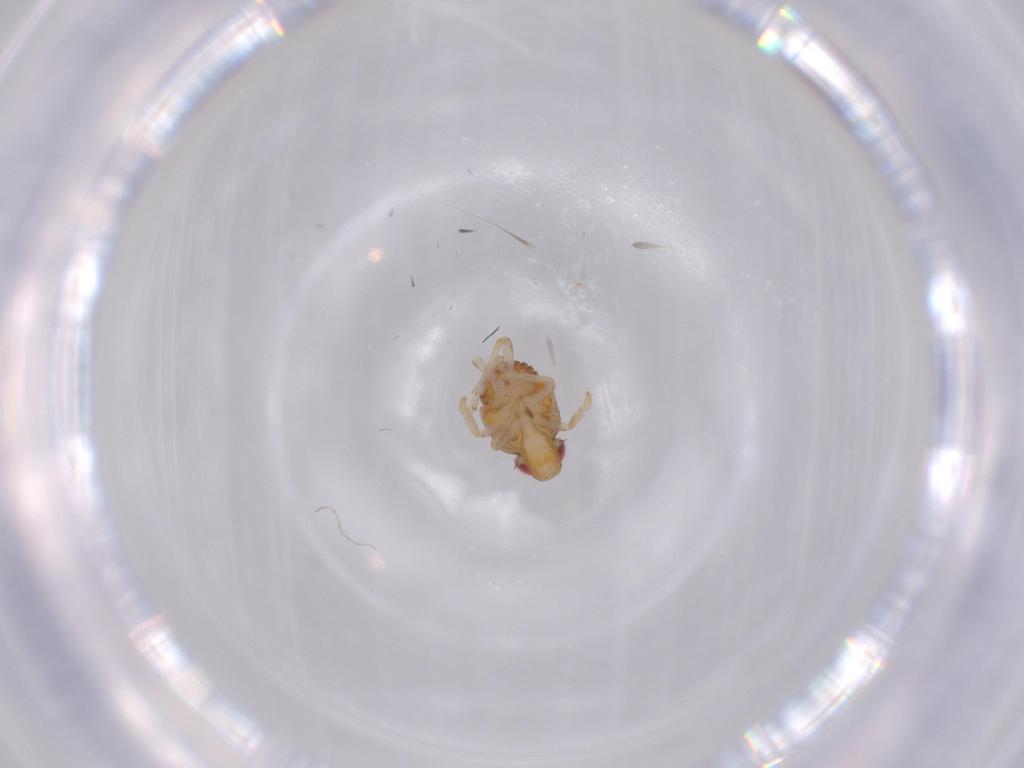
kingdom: Animalia
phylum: Arthropoda
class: Insecta
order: Hemiptera
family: Issidae
